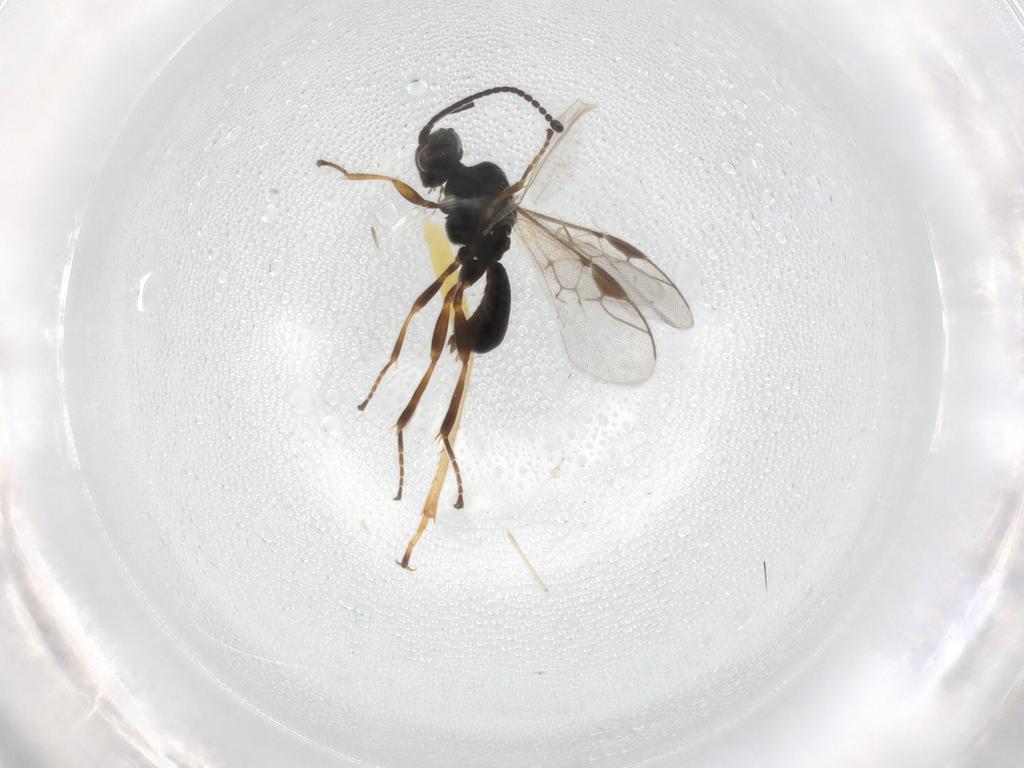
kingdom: Animalia
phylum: Arthropoda
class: Insecta
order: Hymenoptera
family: Braconidae
